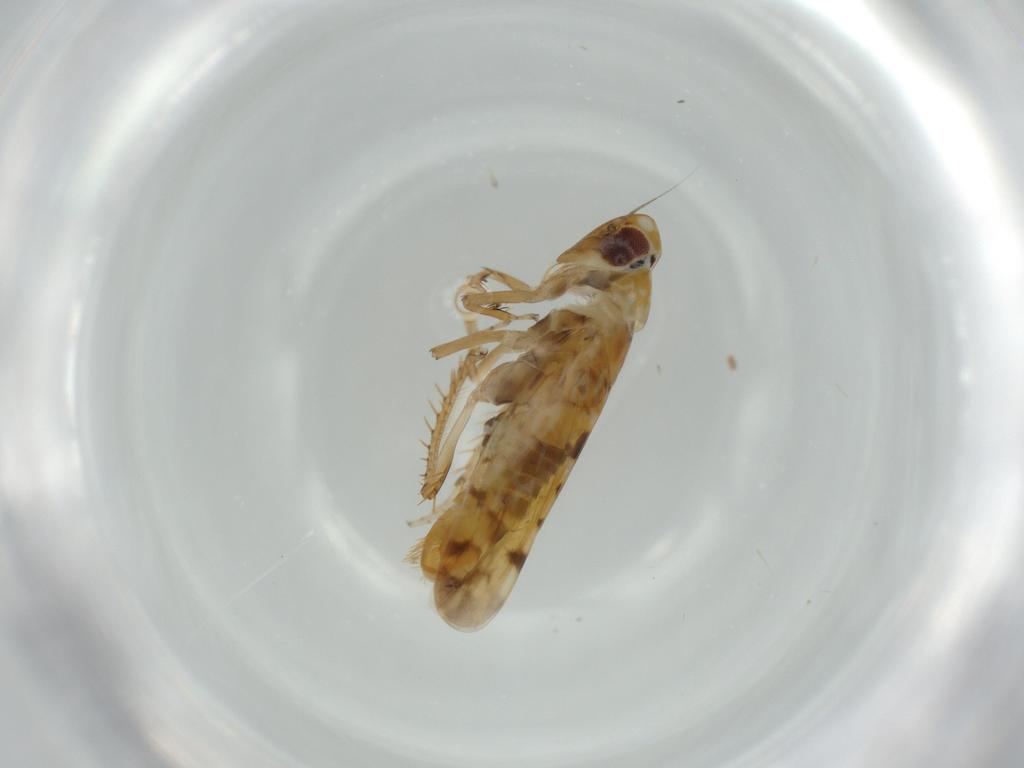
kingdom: Animalia
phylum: Arthropoda
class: Insecta
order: Hemiptera
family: Cicadellidae
